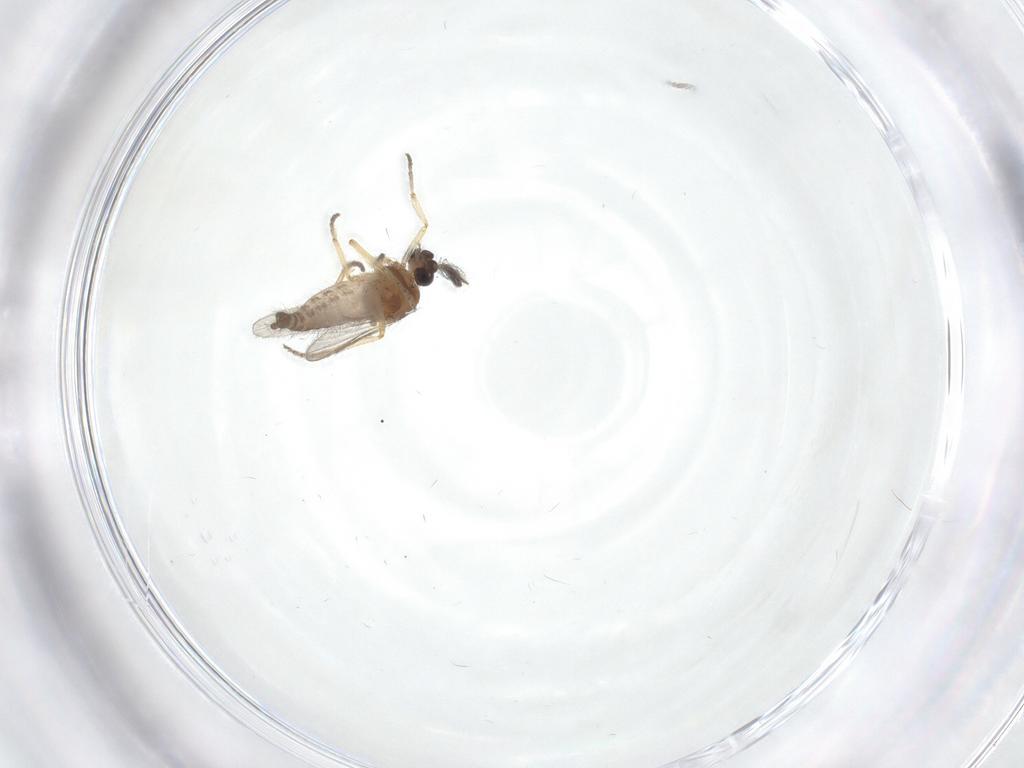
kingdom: Animalia
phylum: Arthropoda
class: Insecta
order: Diptera
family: Ceratopogonidae
